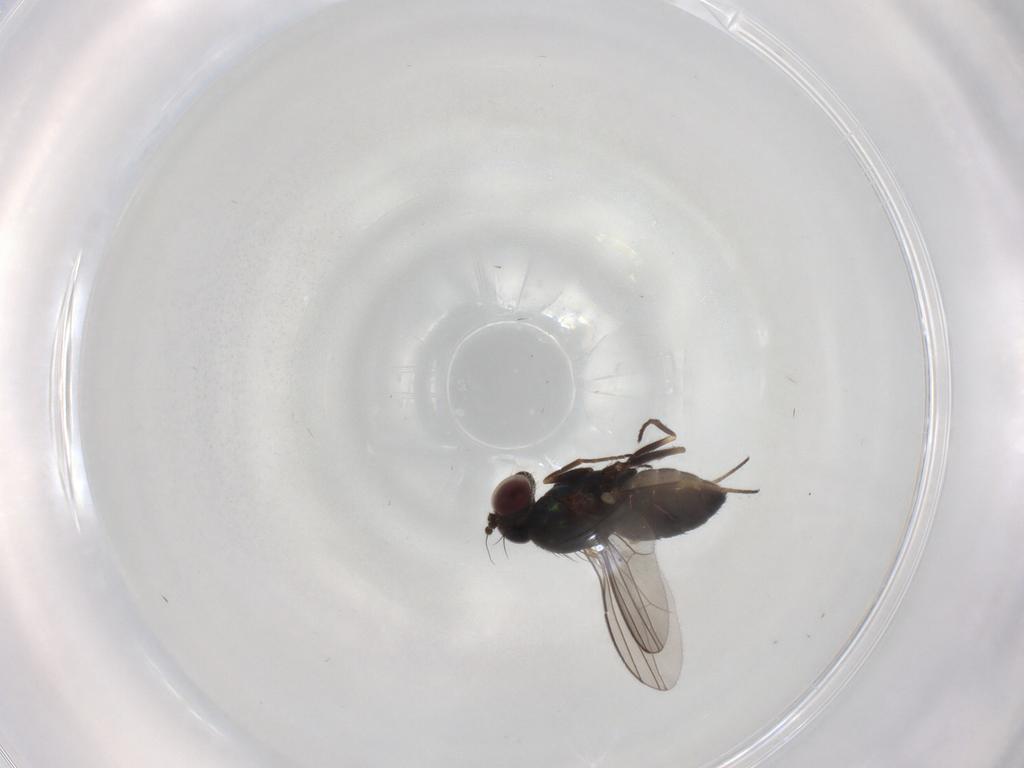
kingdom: Animalia
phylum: Arthropoda
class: Insecta
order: Diptera
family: Dolichopodidae
